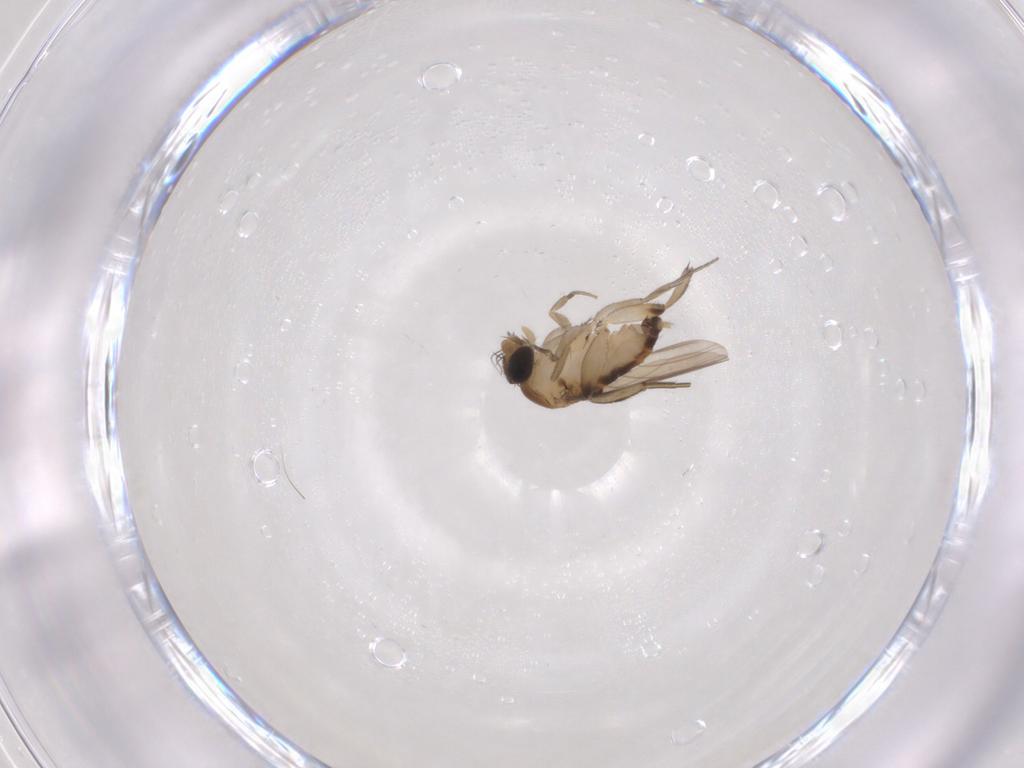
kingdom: Animalia
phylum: Arthropoda
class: Insecta
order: Diptera
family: Phoridae
